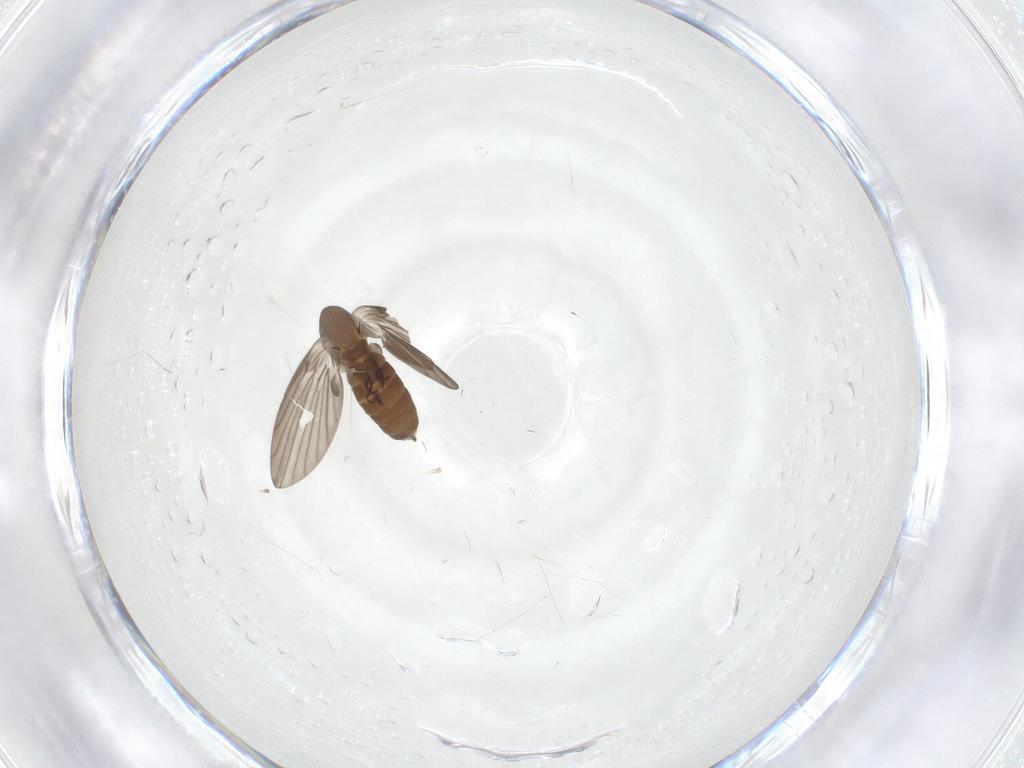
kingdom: Animalia
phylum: Arthropoda
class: Insecta
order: Diptera
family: Psychodidae
